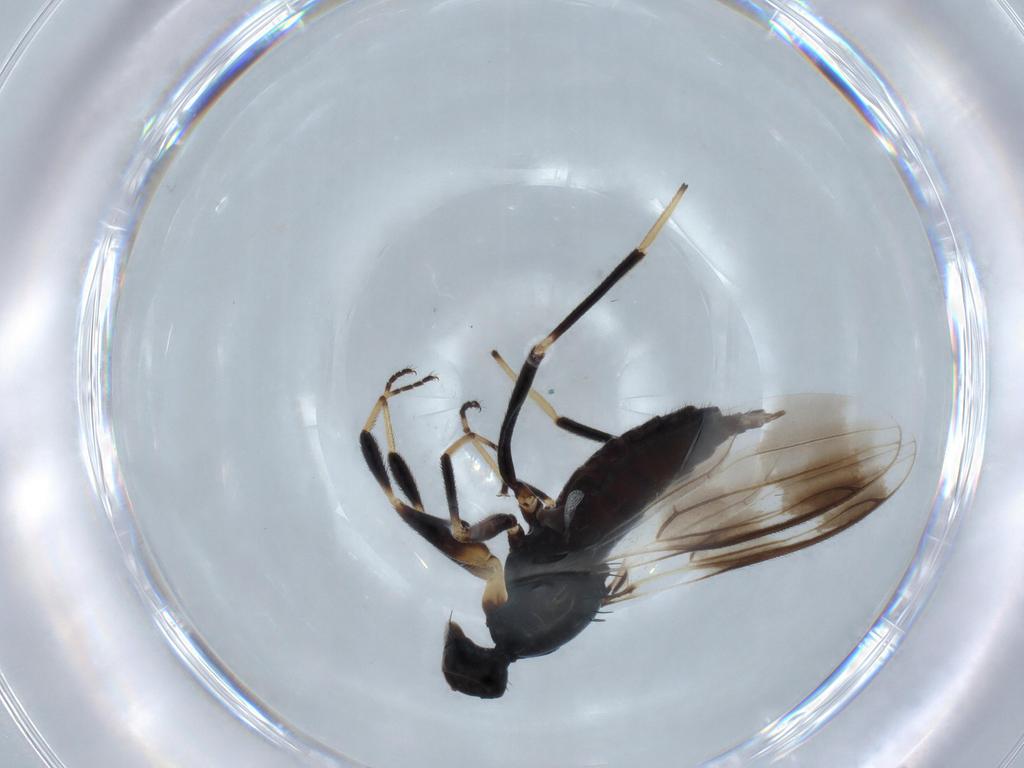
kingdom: Animalia
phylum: Arthropoda
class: Insecta
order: Diptera
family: Hybotidae
